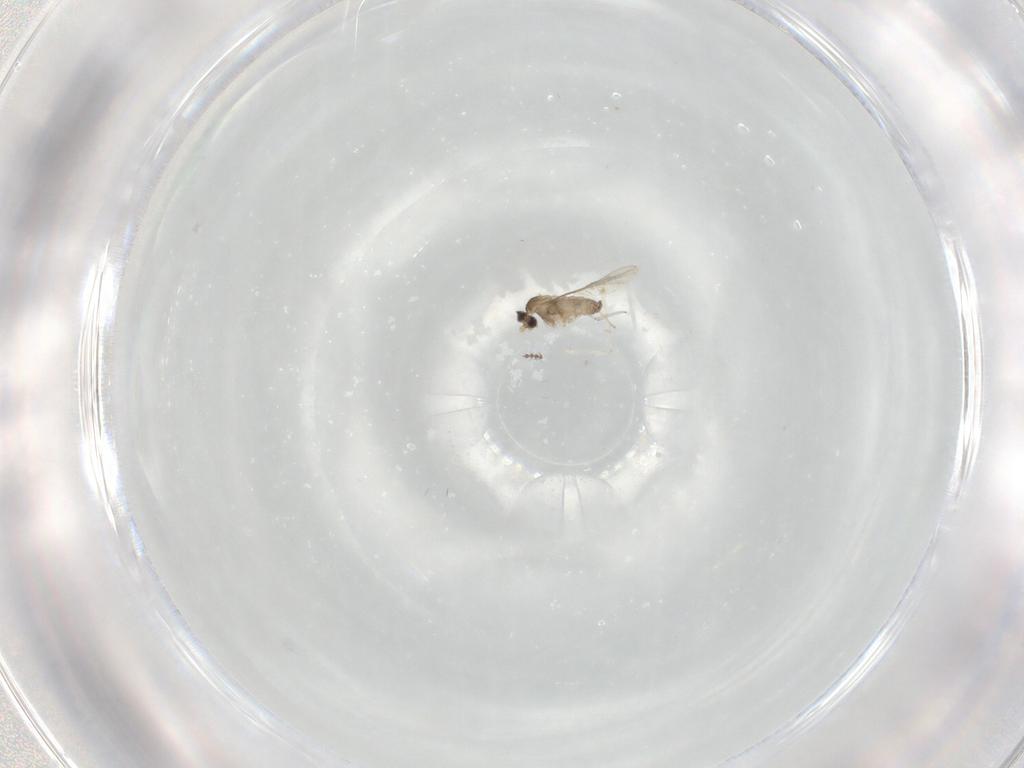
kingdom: Animalia
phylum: Arthropoda
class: Insecta
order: Diptera
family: Cecidomyiidae
